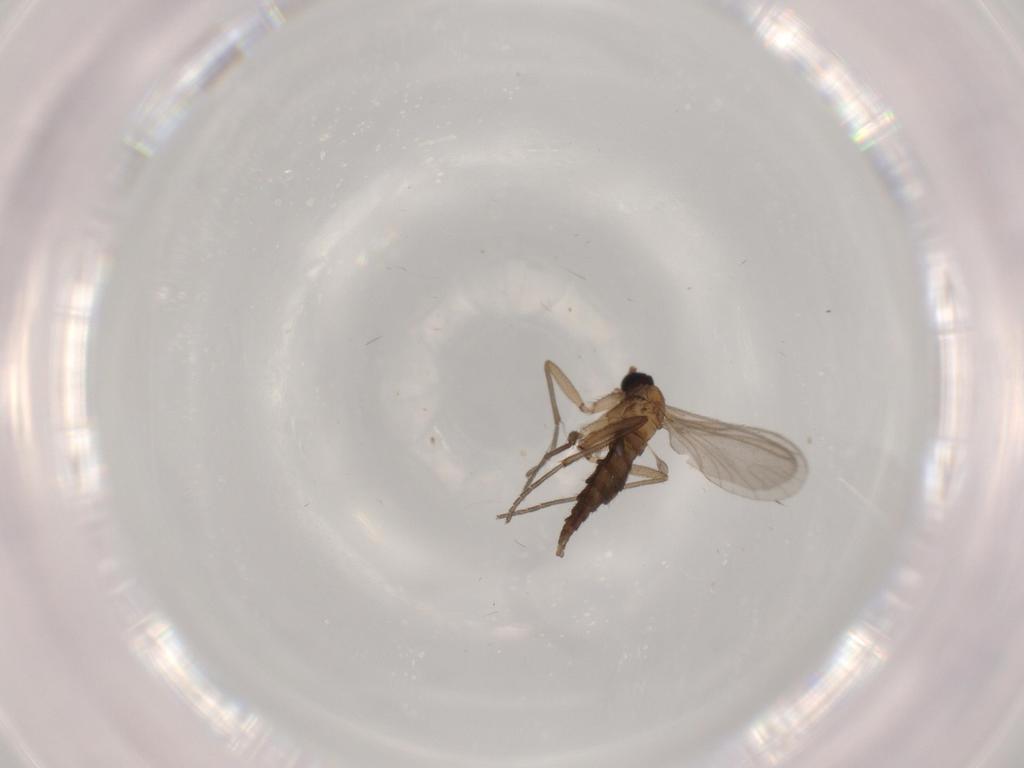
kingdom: Animalia
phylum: Arthropoda
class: Insecta
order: Diptera
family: Sciaridae
